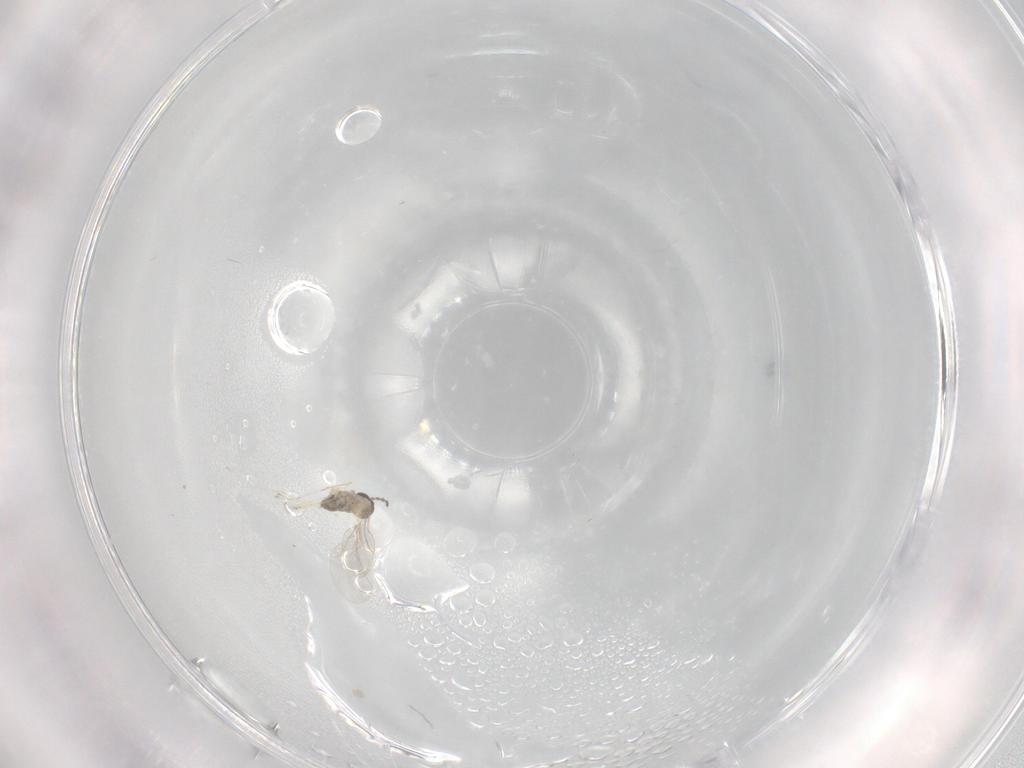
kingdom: Animalia
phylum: Arthropoda
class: Insecta
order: Diptera
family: Cecidomyiidae
